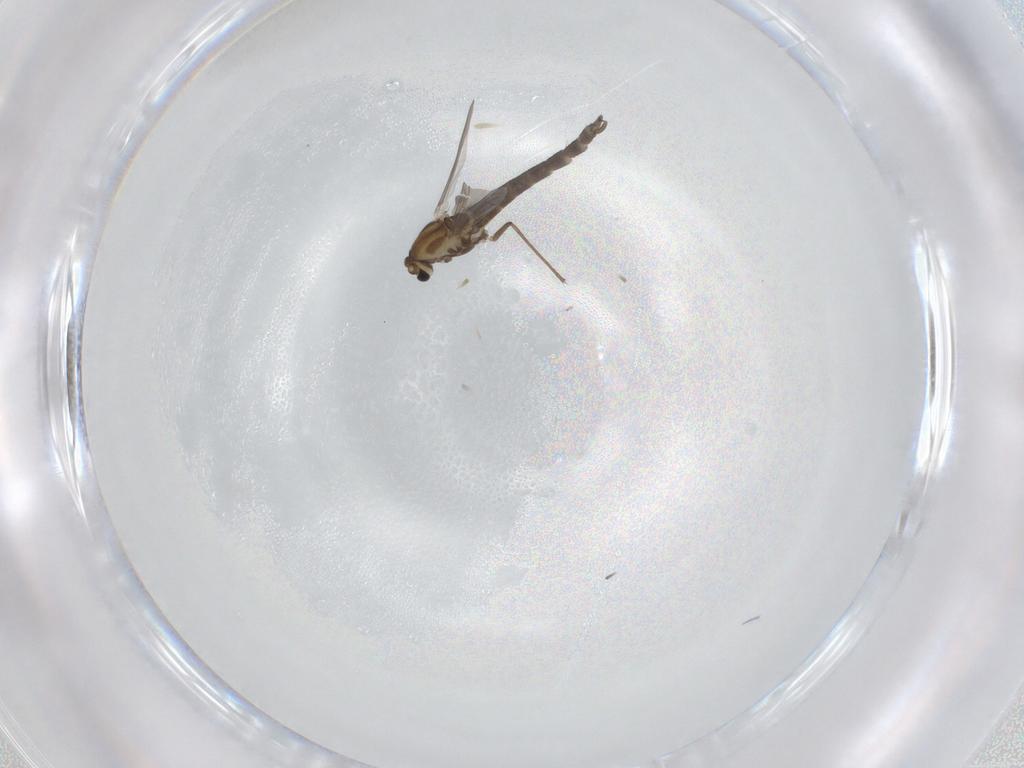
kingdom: Animalia
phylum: Arthropoda
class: Insecta
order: Diptera
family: Chironomidae
